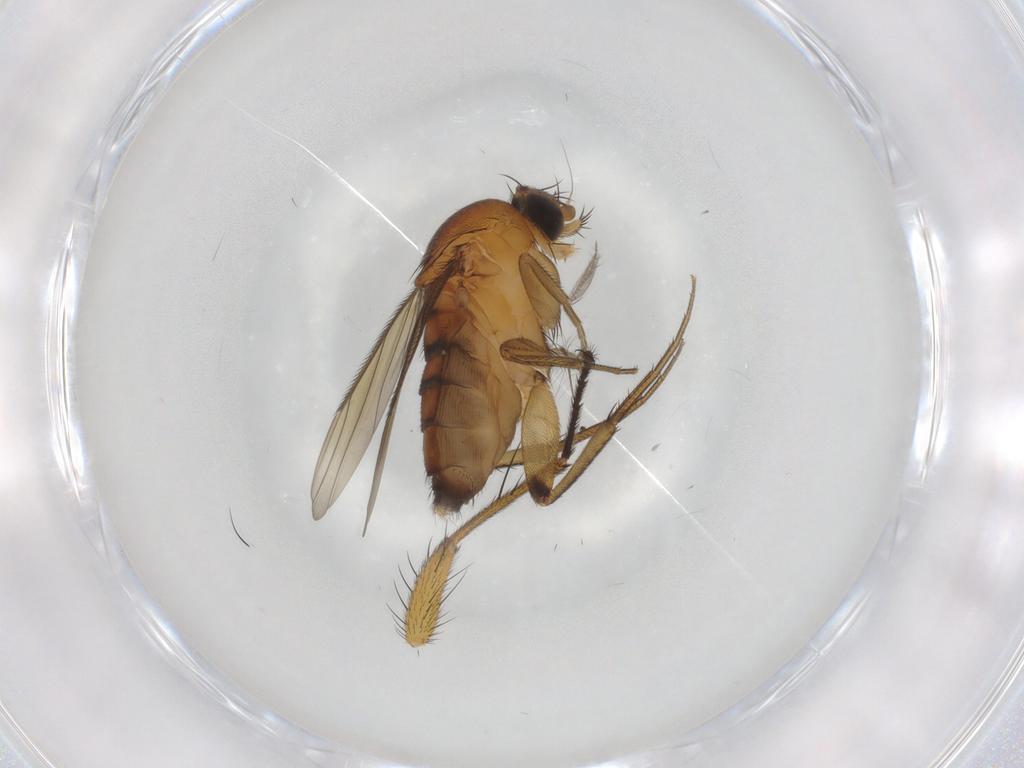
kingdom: Animalia
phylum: Arthropoda
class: Insecta
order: Diptera
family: Phoridae
